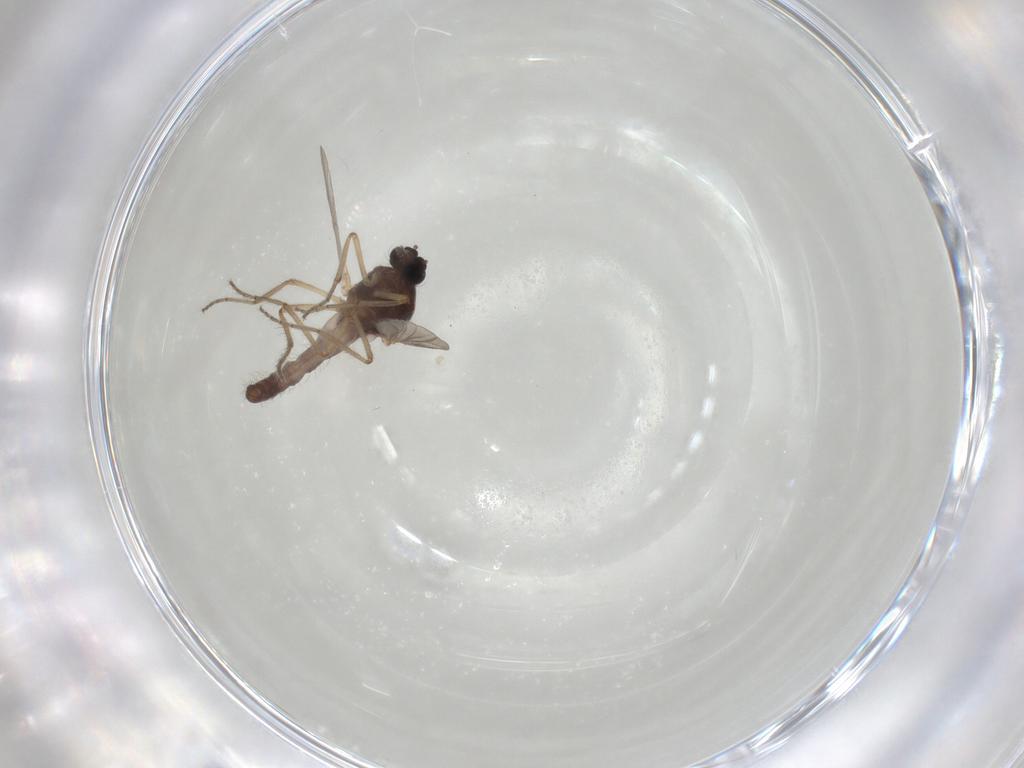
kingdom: Animalia
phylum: Arthropoda
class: Insecta
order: Diptera
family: Ceratopogonidae
